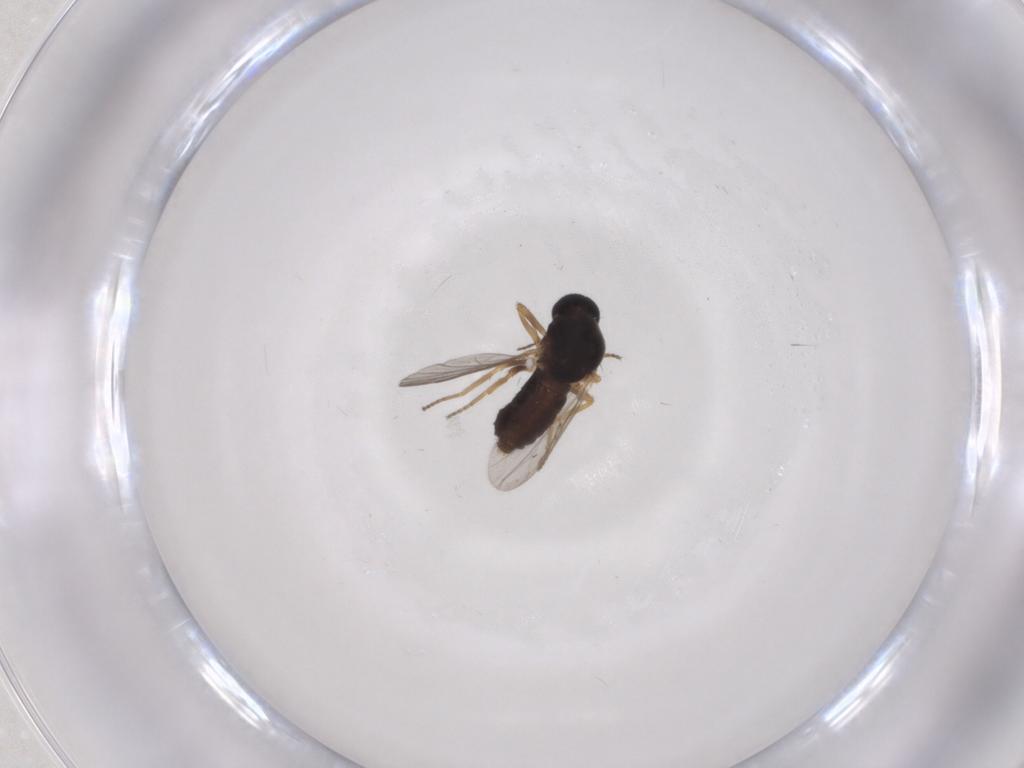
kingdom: Animalia
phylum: Arthropoda
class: Insecta
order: Diptera
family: Ceratopogonidae
